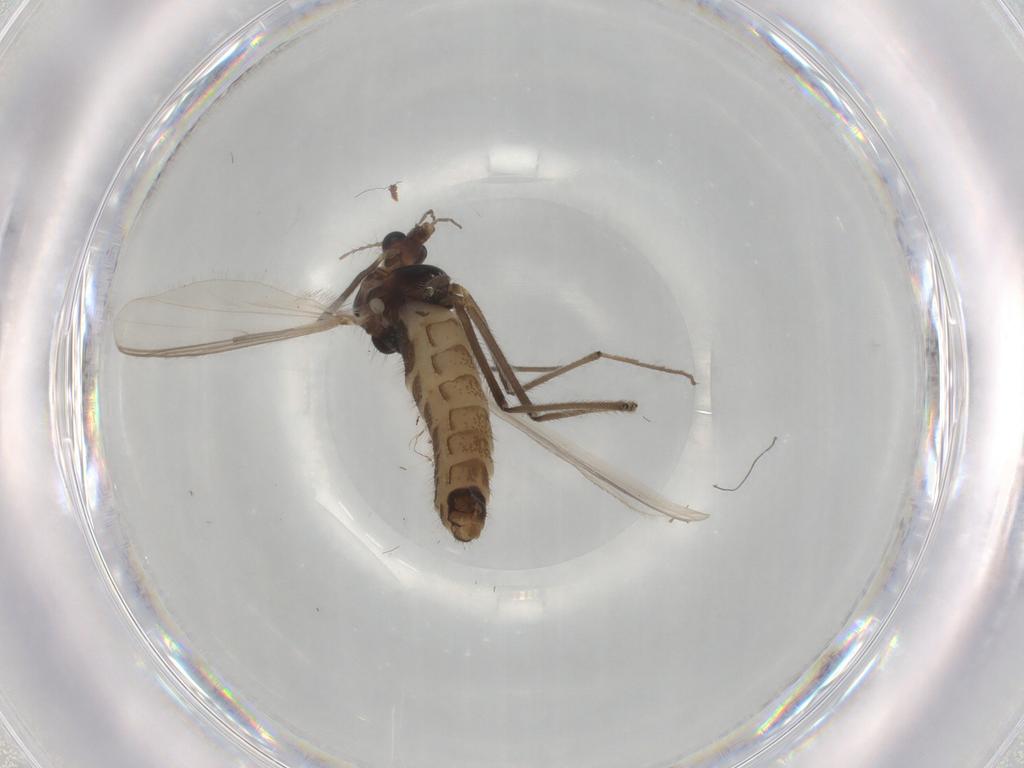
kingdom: Animalia
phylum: Arthropoda
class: Insecta
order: Diptera
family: Chironomidae
